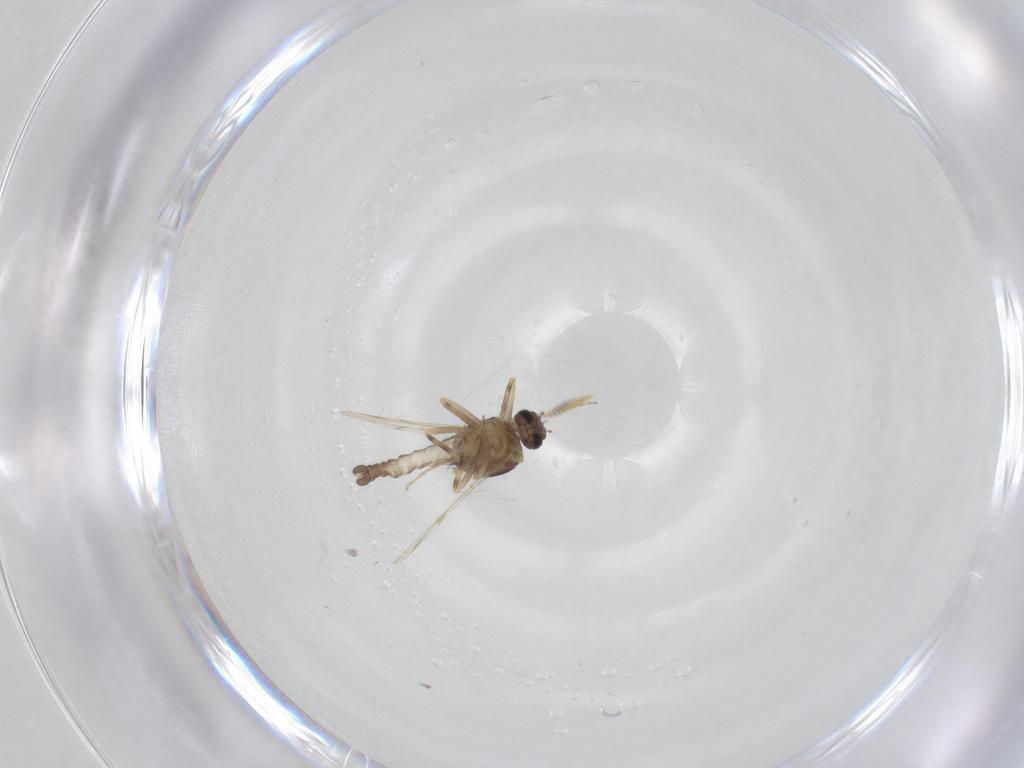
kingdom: Animalia
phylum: Arthropoda
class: Insecta
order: Diptera
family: Ceratopogonidae
